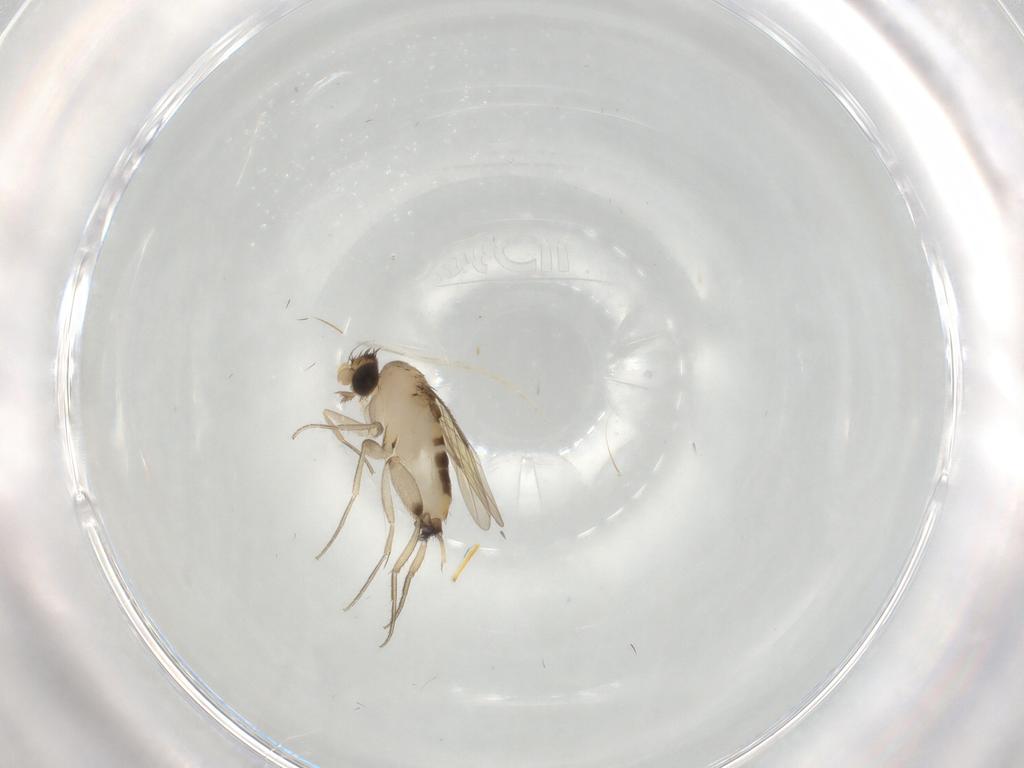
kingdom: Animalia
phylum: Arthropoda
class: Insecta
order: Diptera
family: Phoridae
